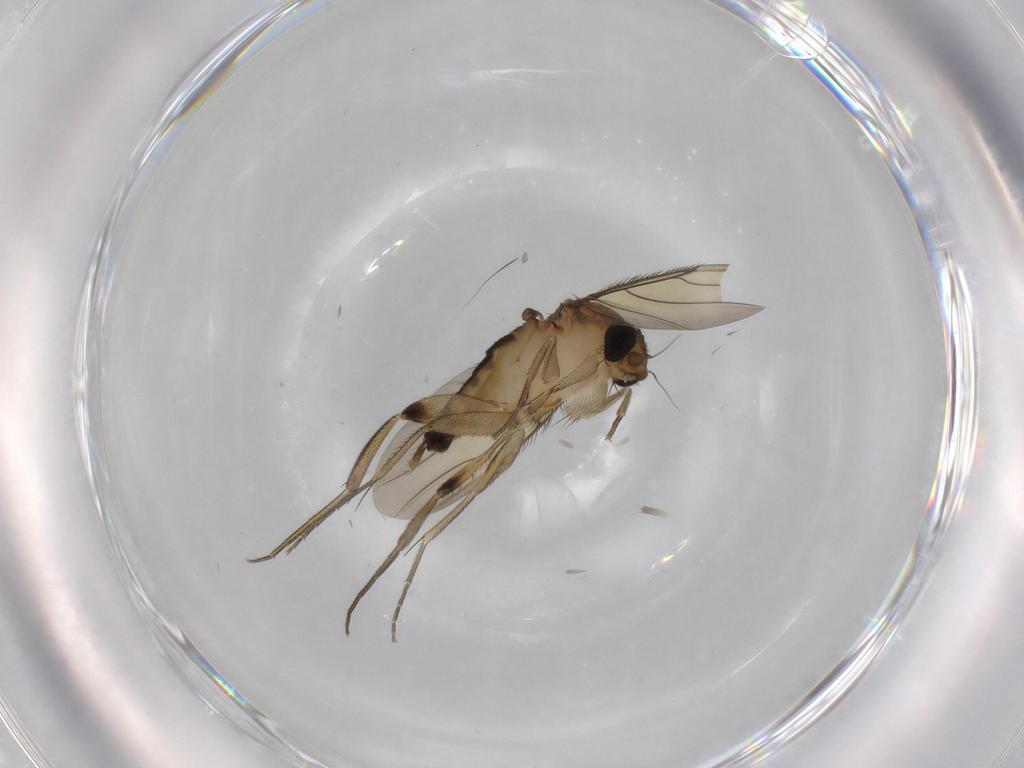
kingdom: Animalia
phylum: Arthropoda
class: Insecta
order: Diptera
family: Phoridae
